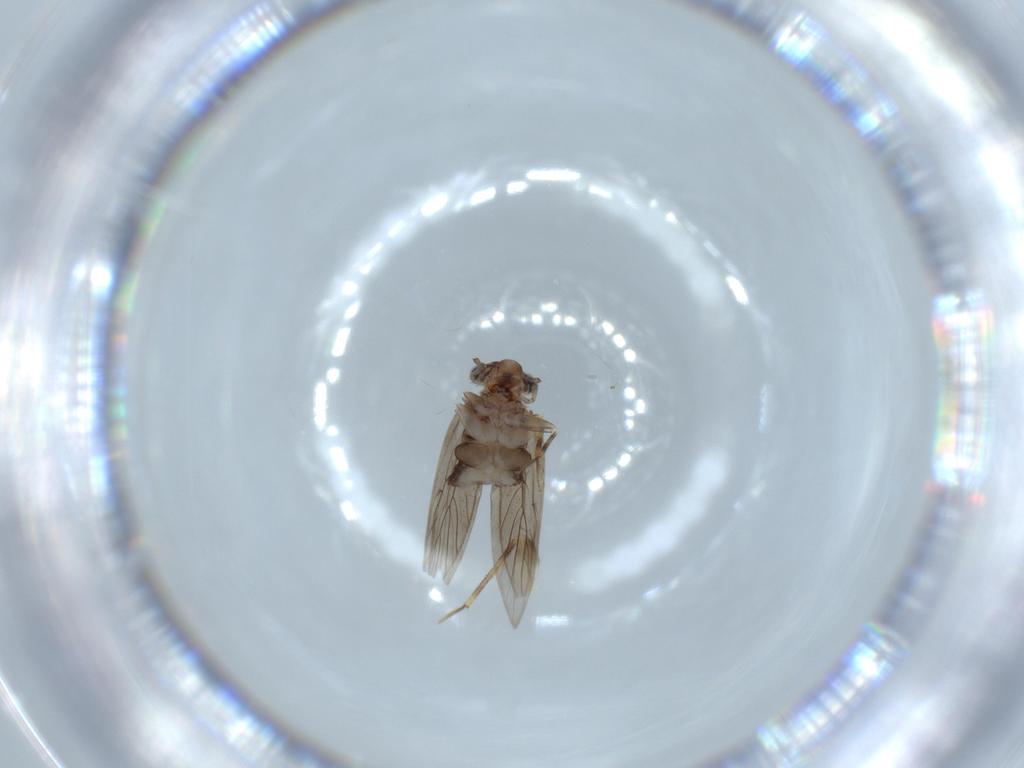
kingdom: Animalia
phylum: Arthropoda
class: Insecta
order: Psocodea
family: Lepidopsocidae
